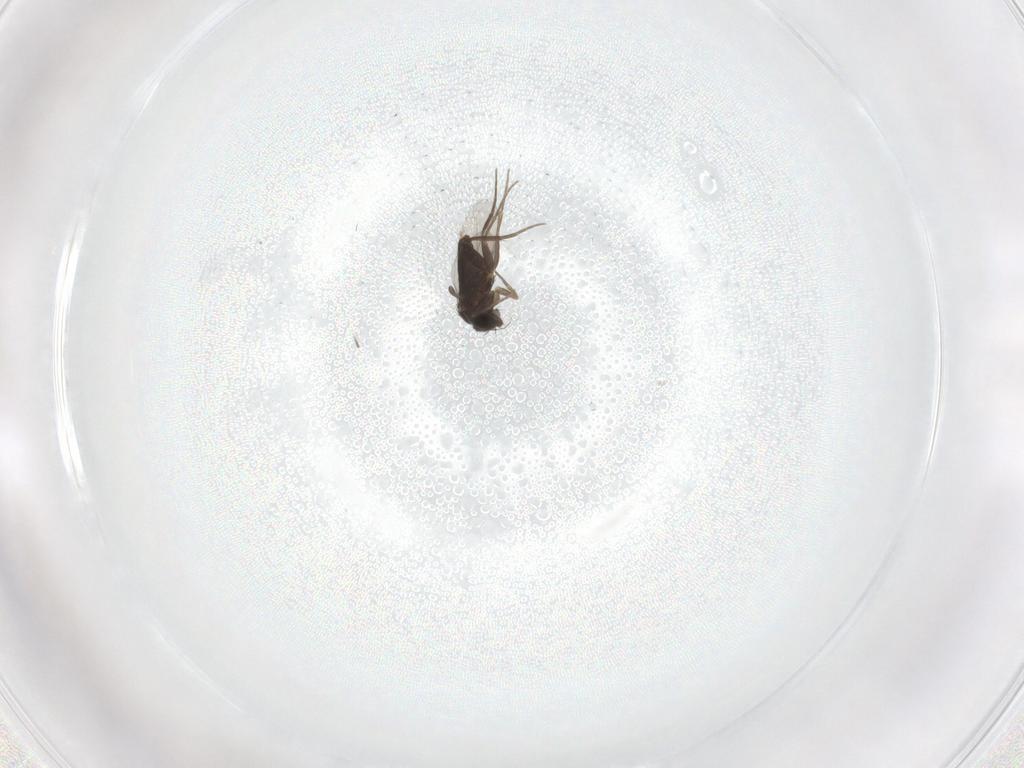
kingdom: Animalia
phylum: Arthropoda
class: Insecta
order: Diptera
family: Phoridae
